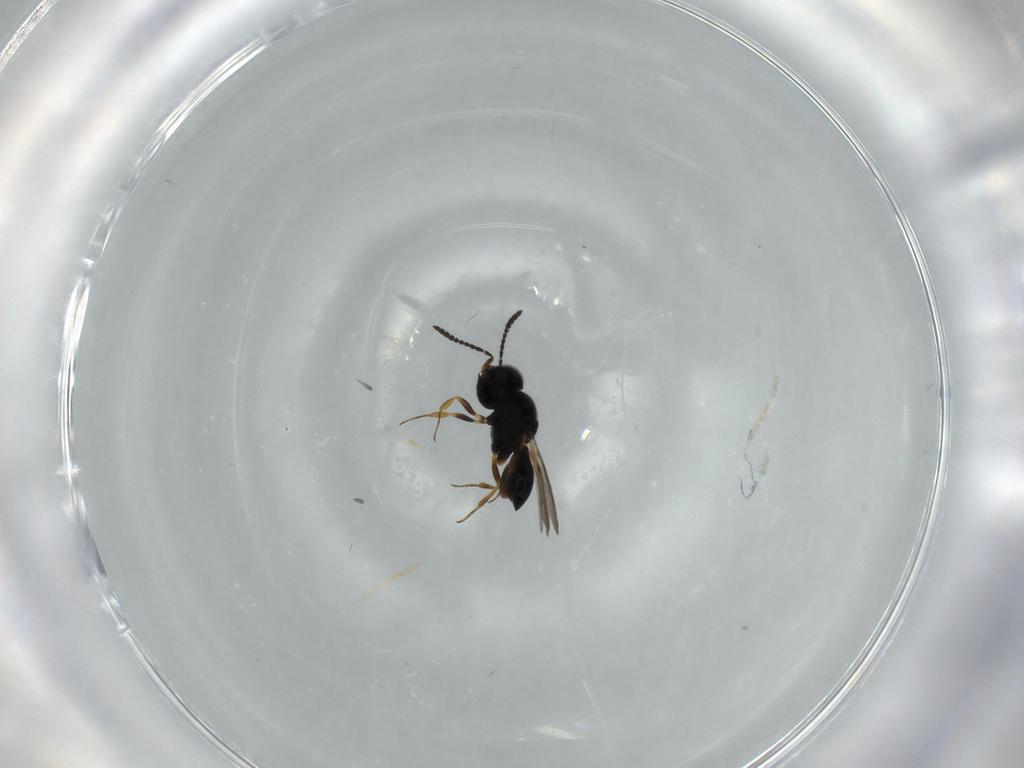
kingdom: Animalia
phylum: Arthropoda
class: Insecta
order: Hymenoptera
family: Scelionidae
